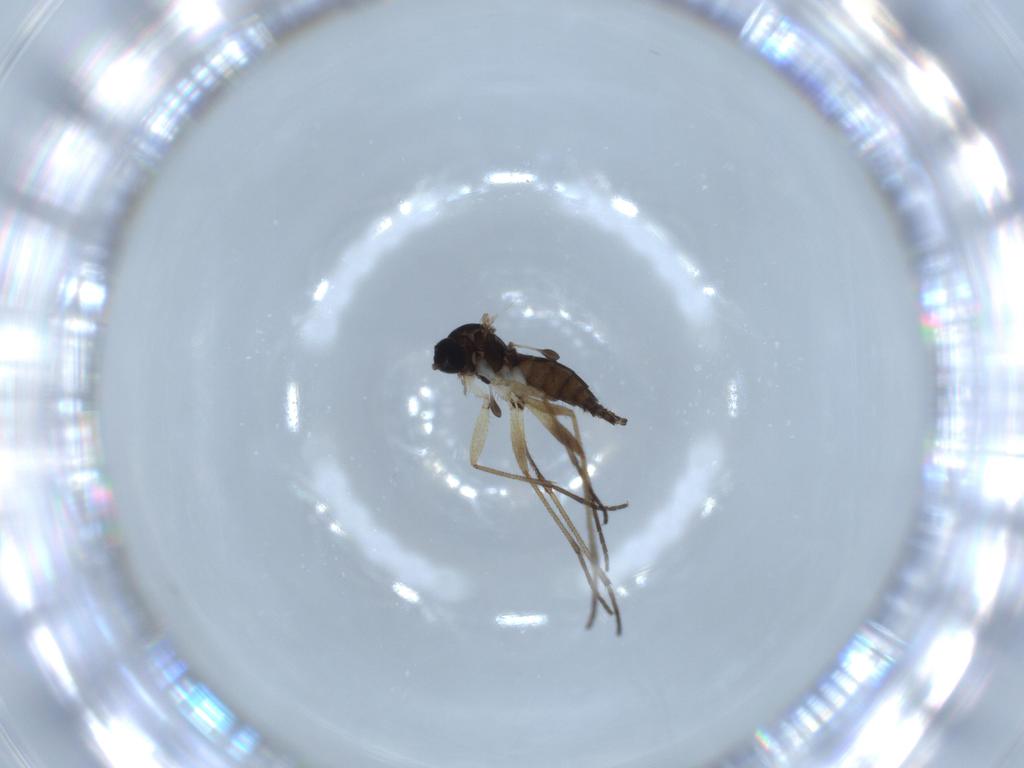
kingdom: Animalia
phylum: Arthropoda
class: Insecta
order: Diptera
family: Sciaridae
